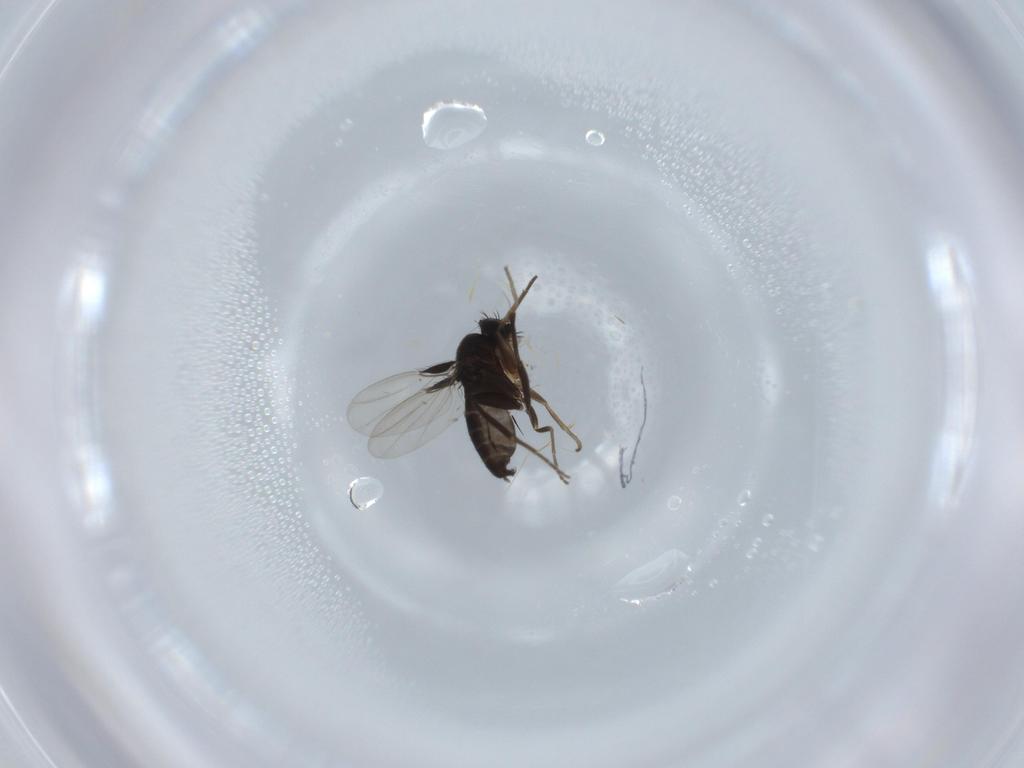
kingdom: Animalia
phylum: Arthropoda
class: Insecta
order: Diptera
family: Phoridae
